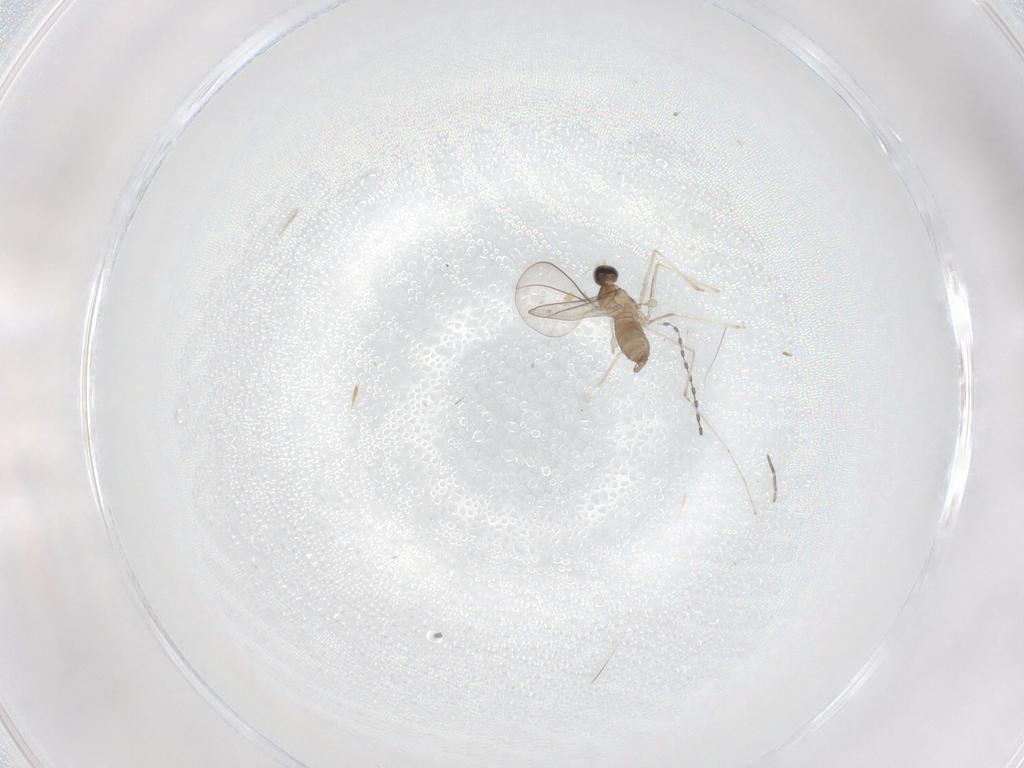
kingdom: Animalia
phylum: Arthropoda
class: Insecta
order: Diptera
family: Cecidomyiidae
